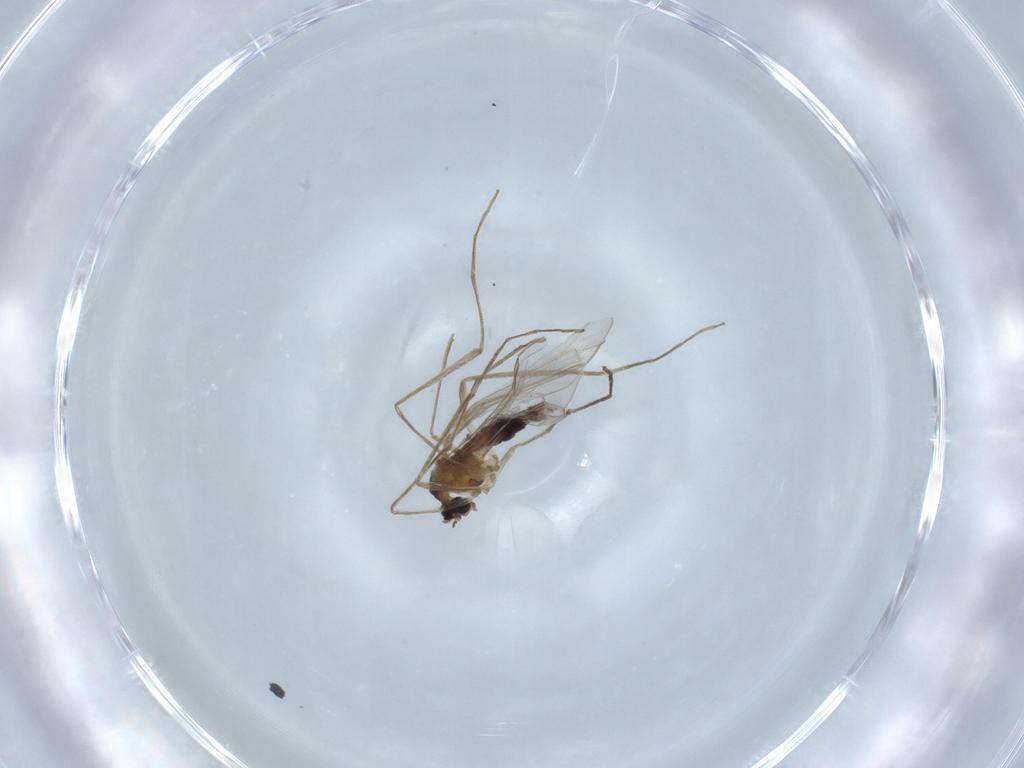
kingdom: Animalia
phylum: Arthropoda
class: Insecta
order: Diptera
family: Cecidomyiidae
